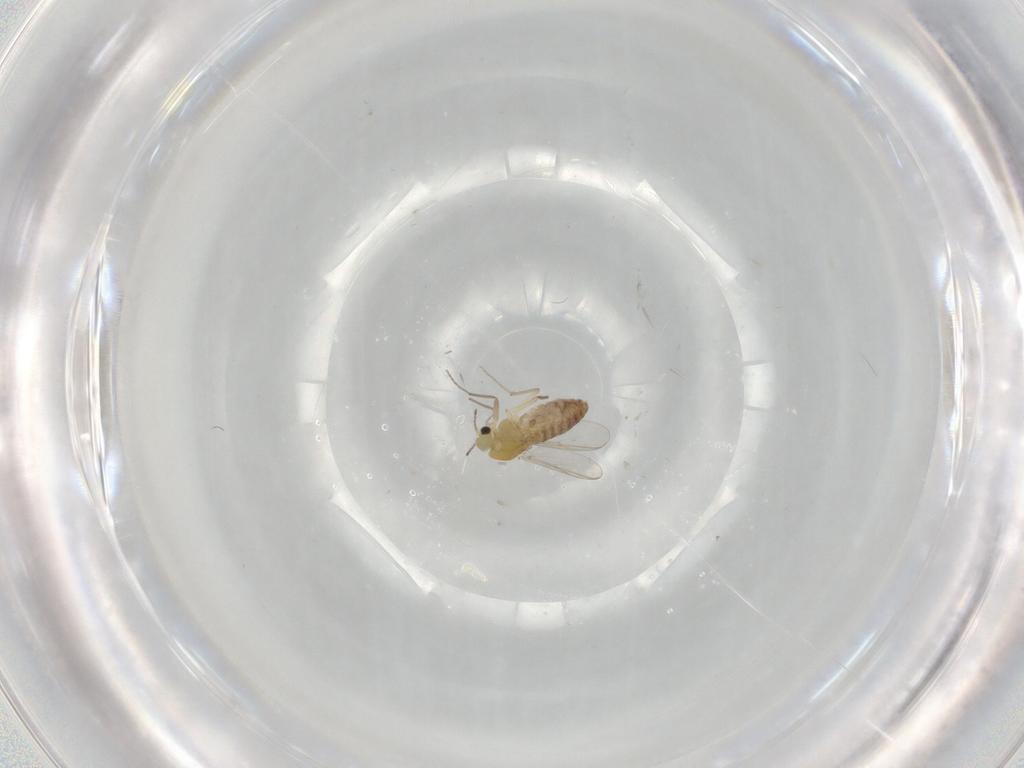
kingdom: Animalia
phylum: Arthropoda
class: Insecta
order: Diptera
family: Chironomidae
